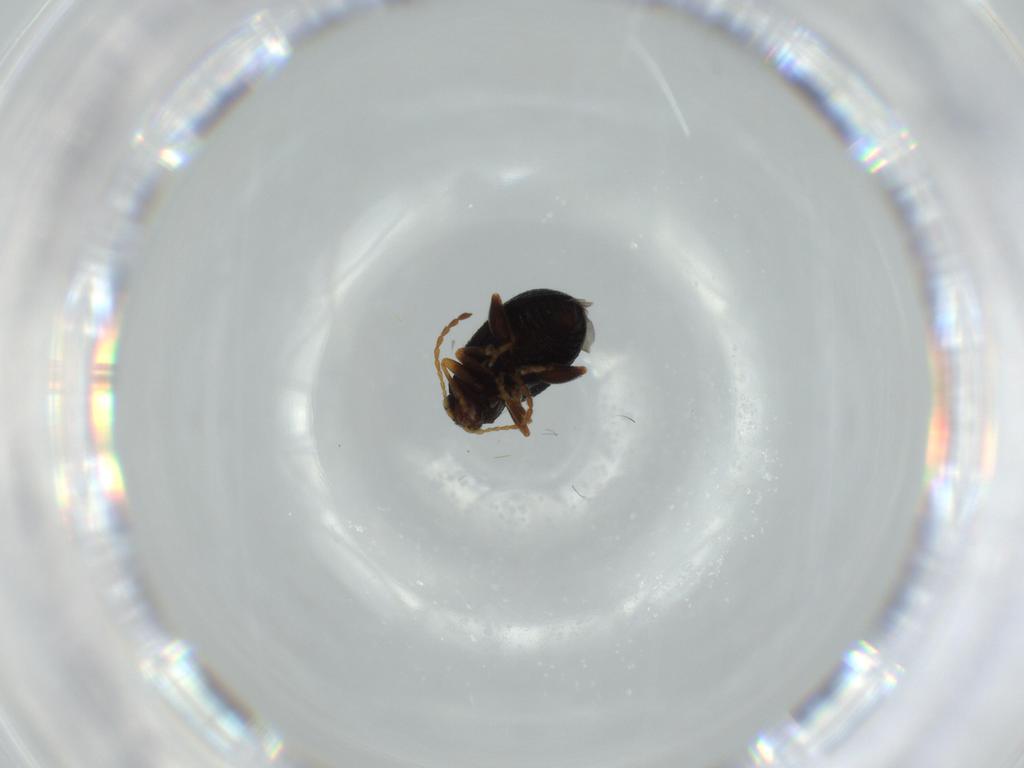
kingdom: Animalia
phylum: Arthropoda
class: Insecta
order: Coleoptera
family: Chrysomelidae
